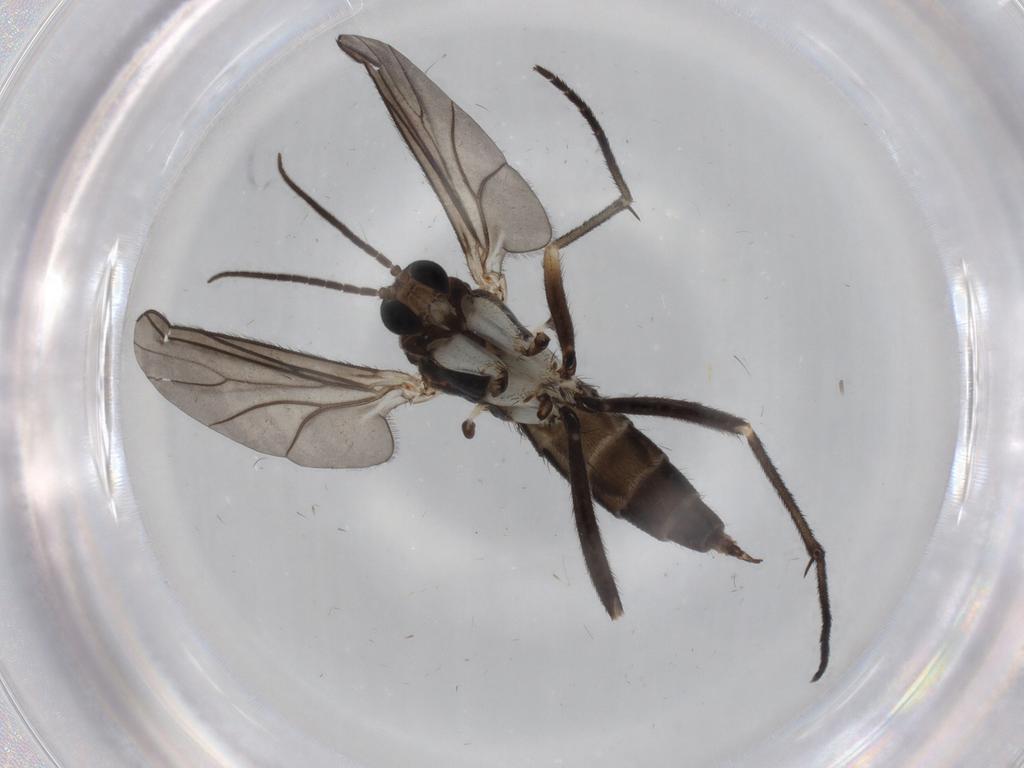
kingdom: Animalia
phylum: Arthropoda
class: Insecta
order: Diptera
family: Sciaridae
